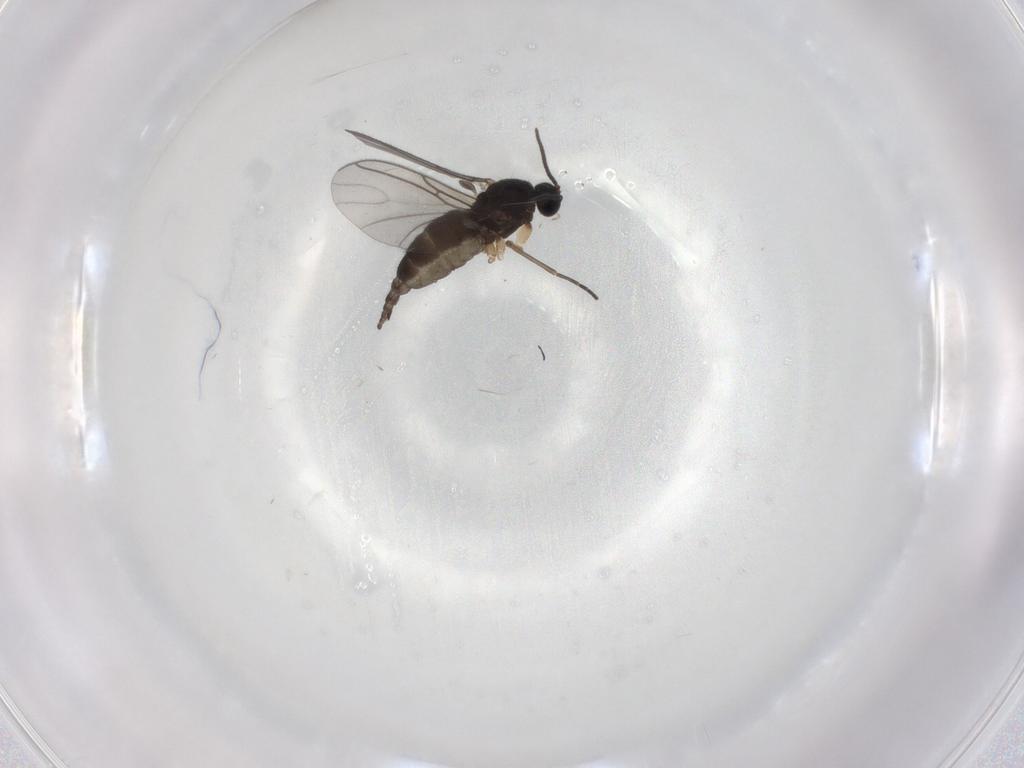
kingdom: Animalia
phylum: Arthropoda
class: Insecta
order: Diptera
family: Sciaridae
